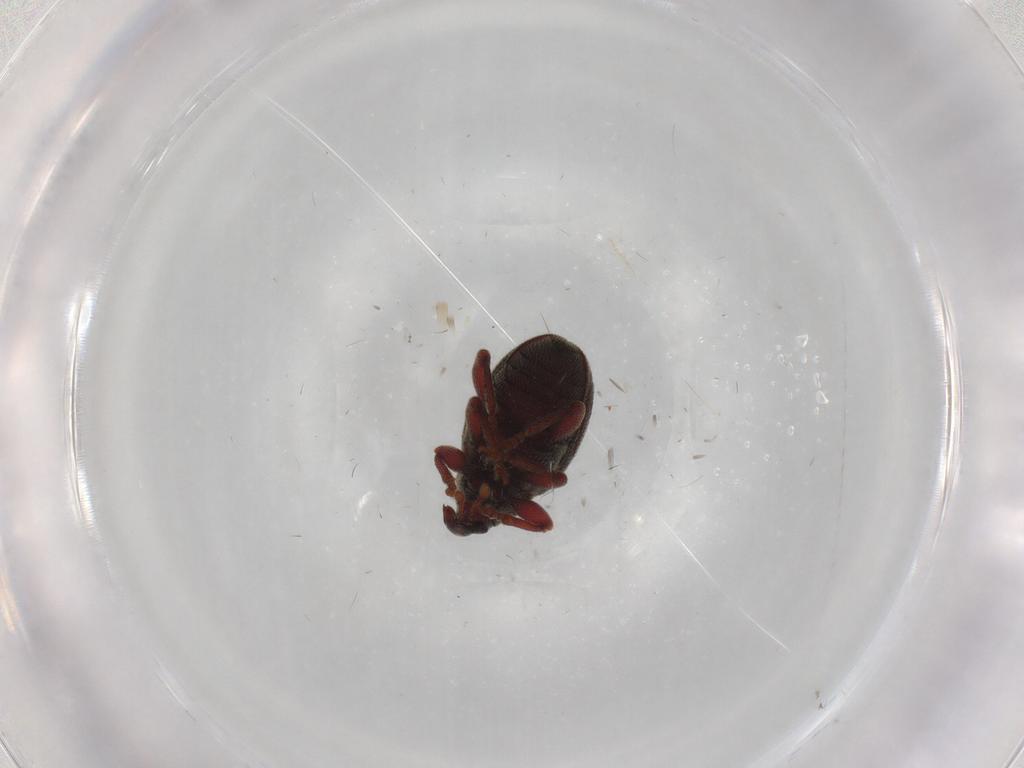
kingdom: Animalia
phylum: Arthropoda
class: Insecta
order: Coleoptera
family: Curculionidae
